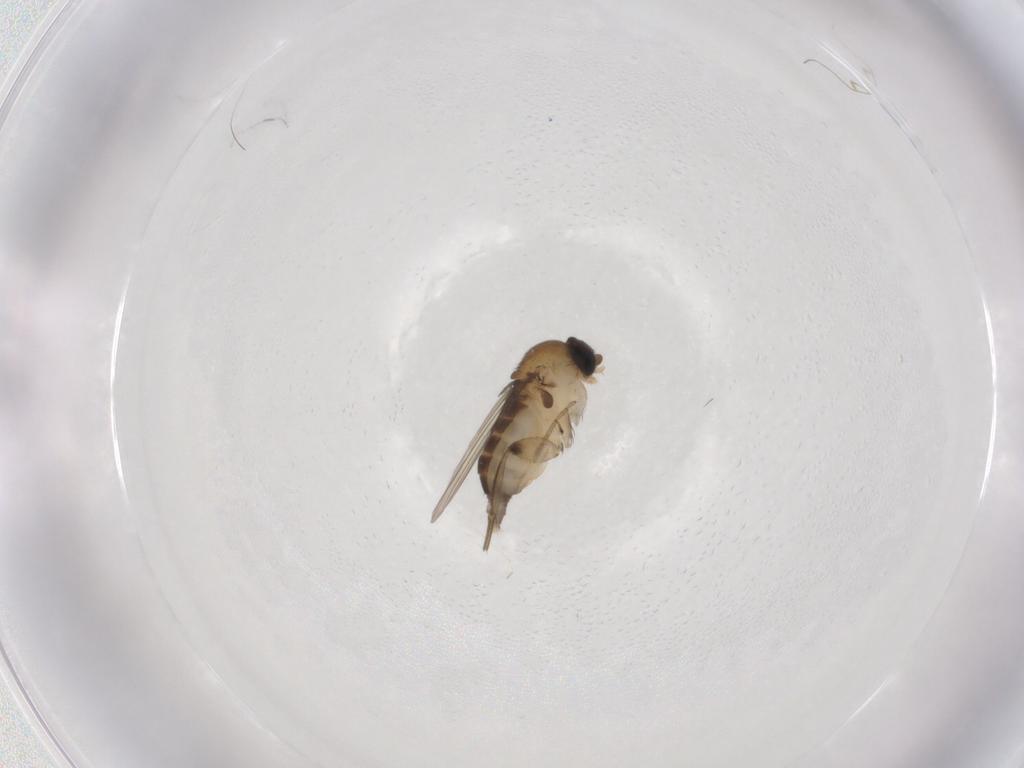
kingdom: Animalia
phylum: Arthropoda
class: Insecta
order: Diptera
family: Phoridae
